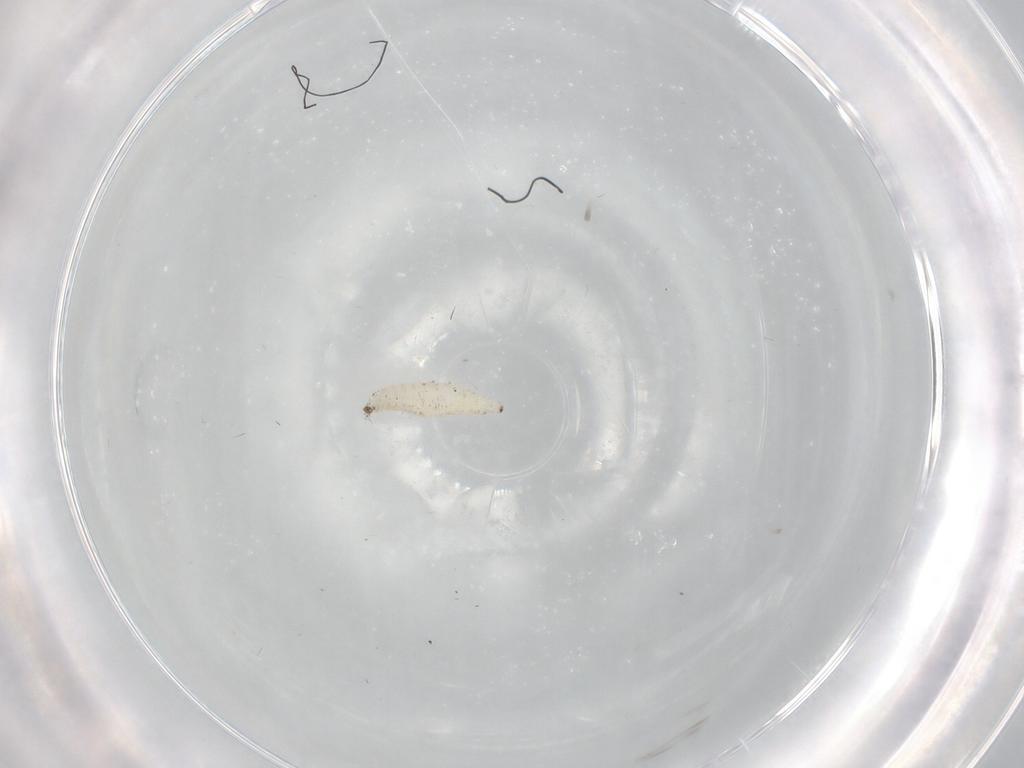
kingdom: Animalia
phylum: Arthropoda
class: Insecta
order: Diptera
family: Cecidomyiidae
